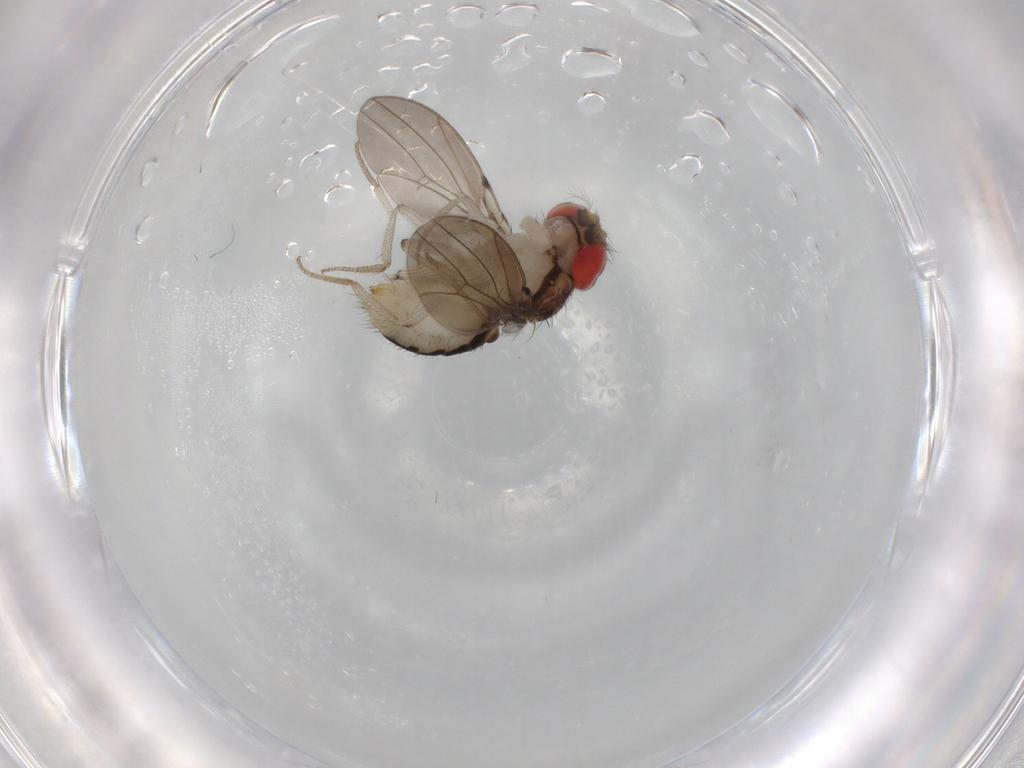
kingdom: Animalia
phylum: Arthropoda
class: Insecta
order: Diptera
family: Drosophilidae
